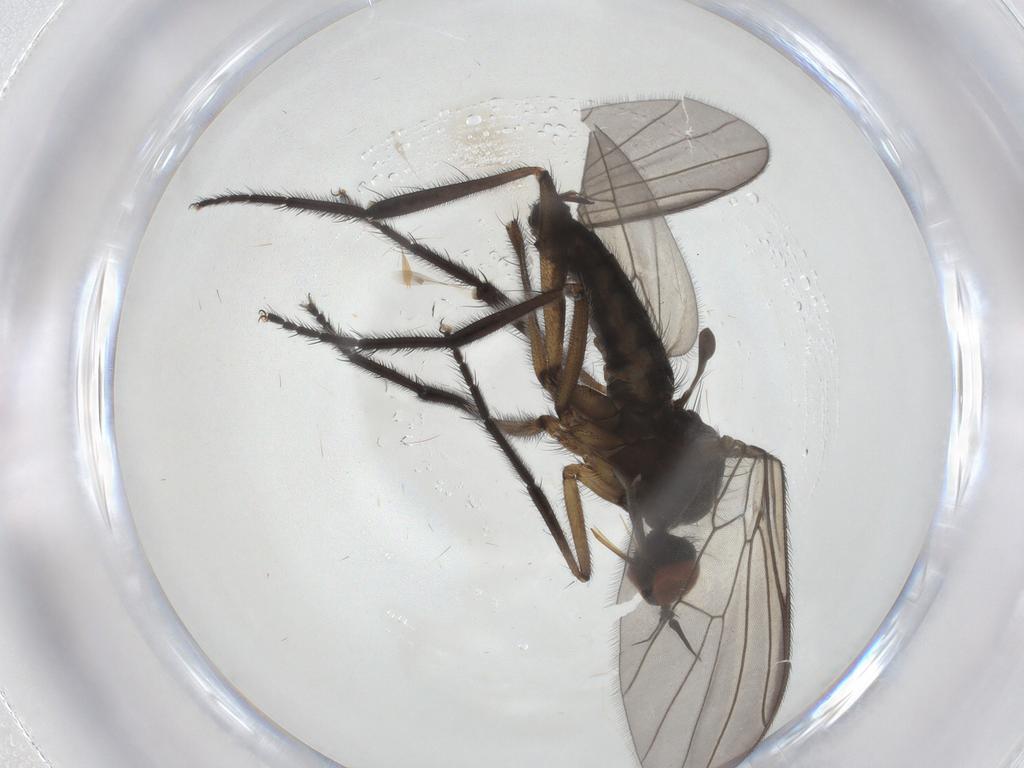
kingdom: Animalia
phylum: Arthropoda
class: Insecta
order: Diptera
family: Empididae
